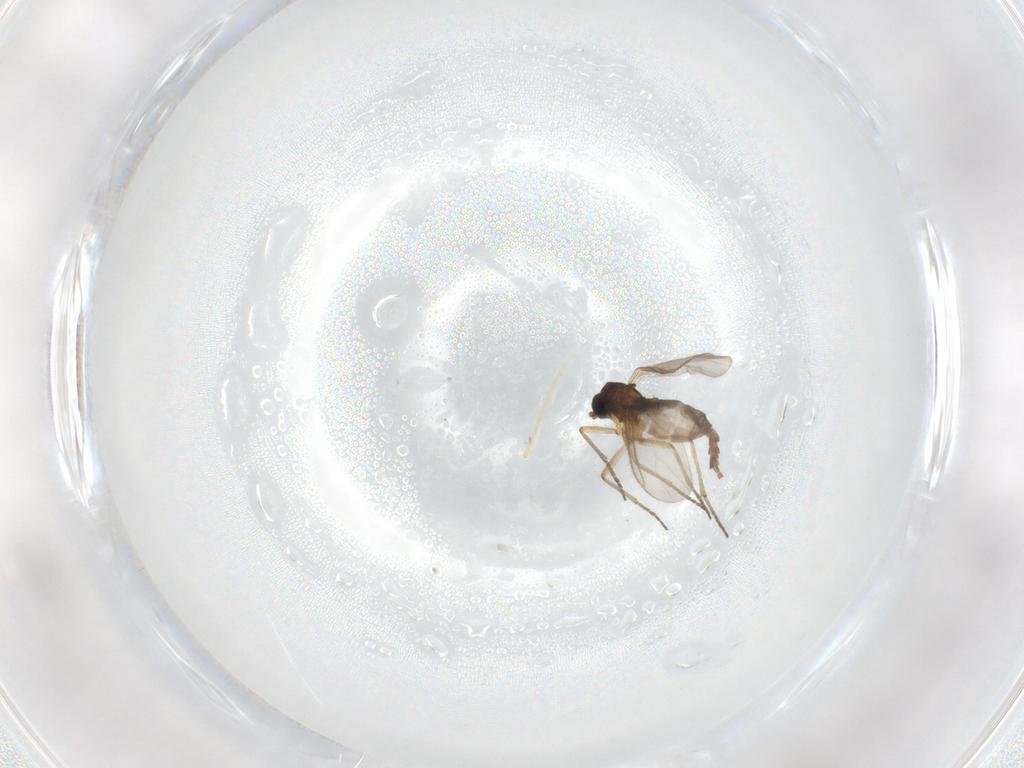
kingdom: Animalia
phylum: Arthropoda
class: Insecta
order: Diptera
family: Sciaridae
